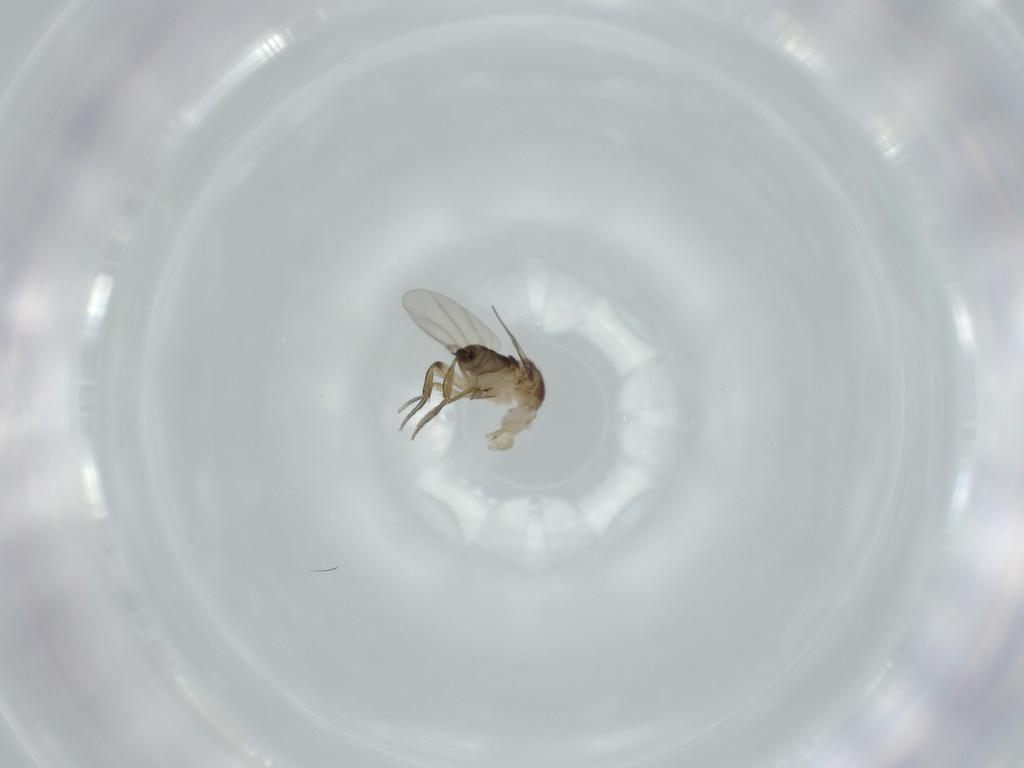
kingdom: Animalia
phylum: Arthropoda
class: Insecta
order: Diptera
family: Phoridae
